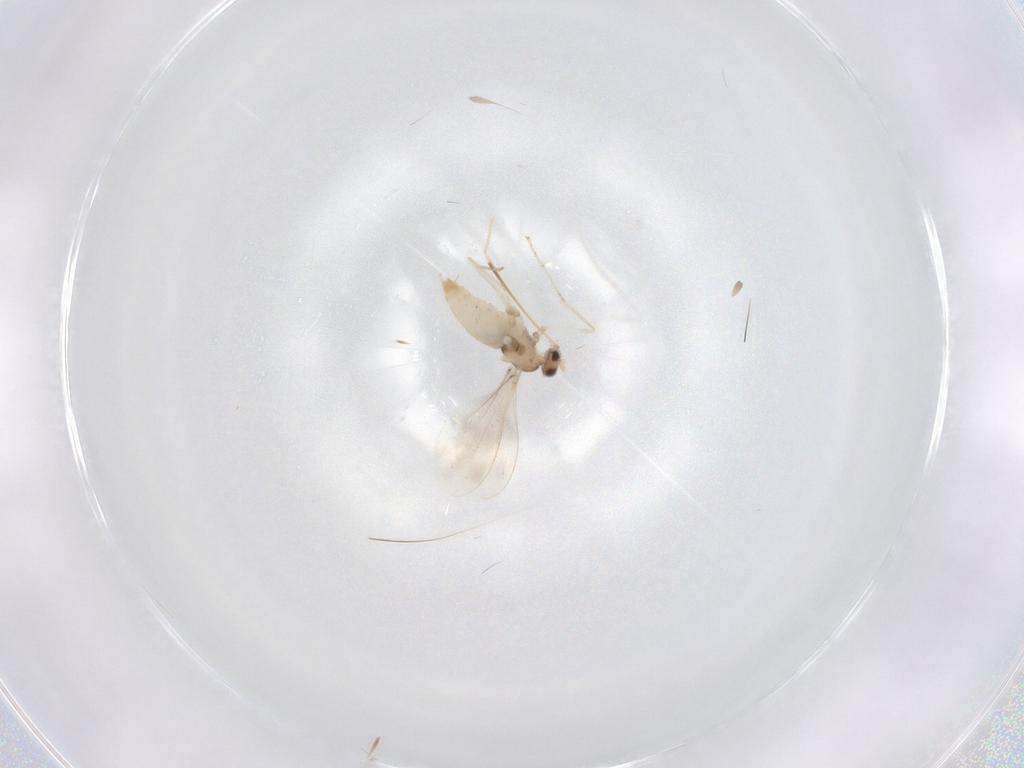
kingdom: Animalia
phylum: Arthropoda
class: Insecta
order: Diptera
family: Cecidomyiidae
